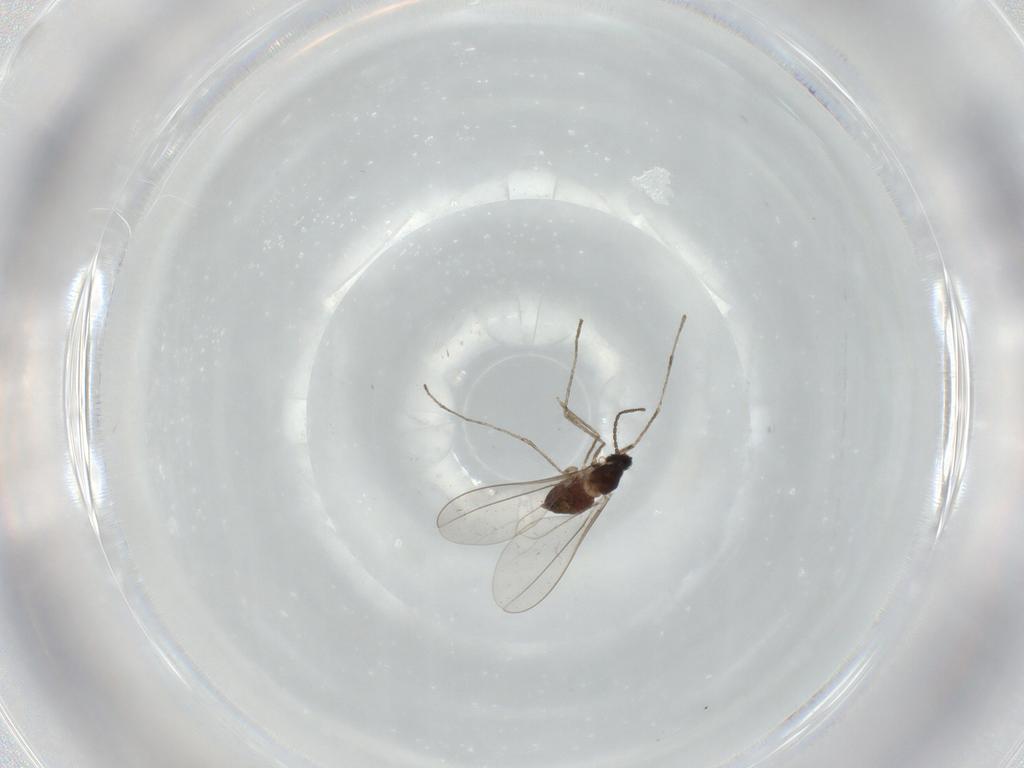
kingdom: Animalia
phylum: Arthropoda
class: Insecta
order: Diptera
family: Cecidomyiidae
